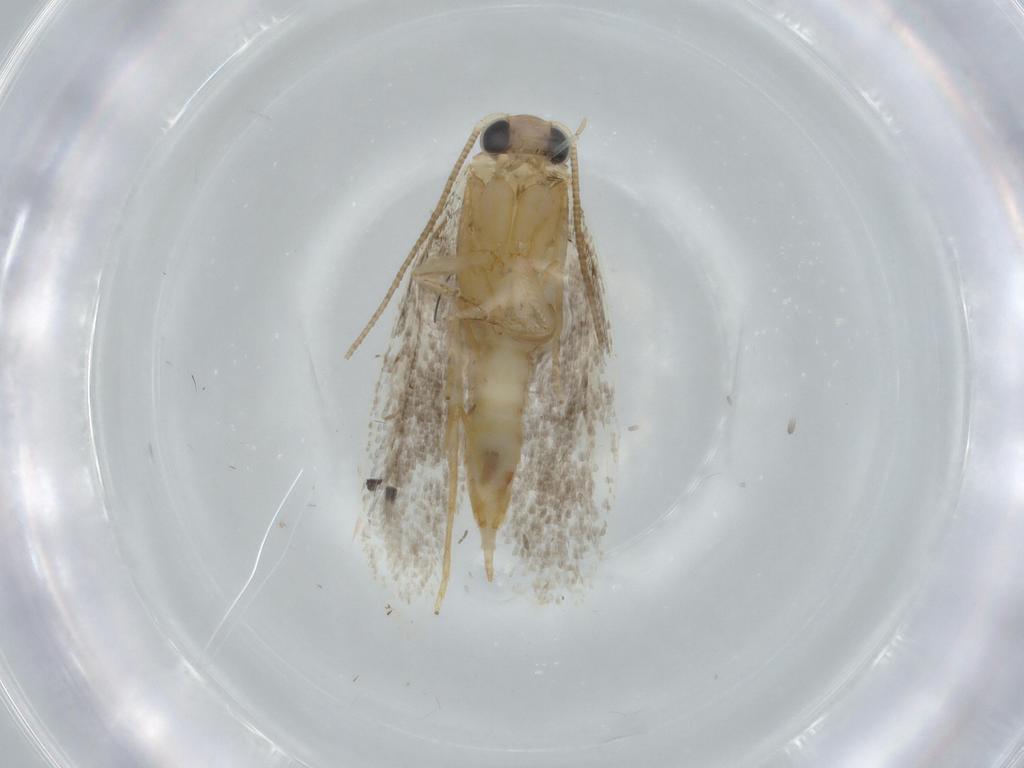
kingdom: Animalia
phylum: Arthropoda
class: Insecta
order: Lepidoptera
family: Tineidae
